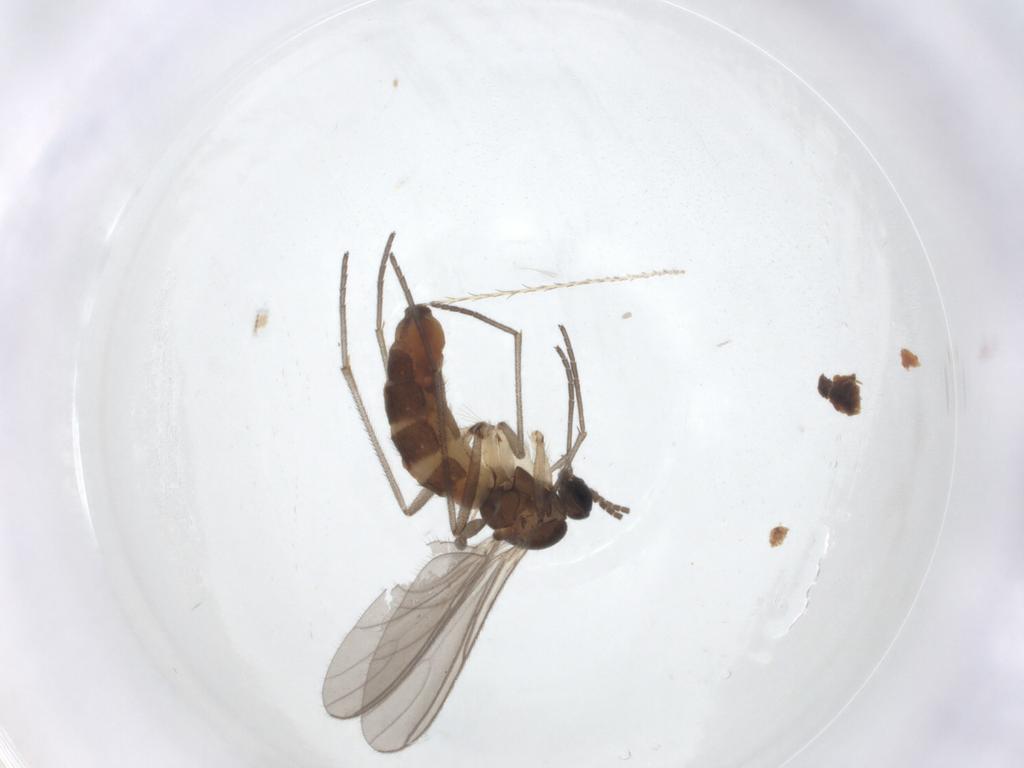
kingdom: Animalia
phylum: Arthropoda
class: Insecta
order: Diptera
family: Sciaridae
